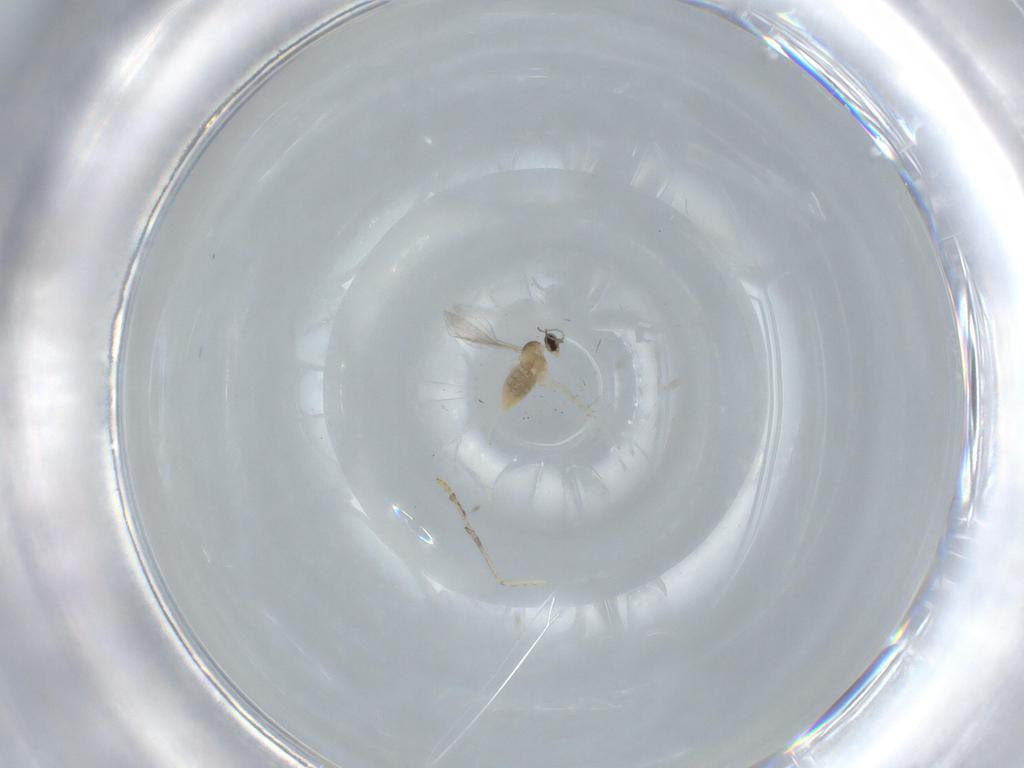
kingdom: Animalia
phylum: Arthropoda
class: Insecta
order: Diptera
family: Cecidomyiidae
